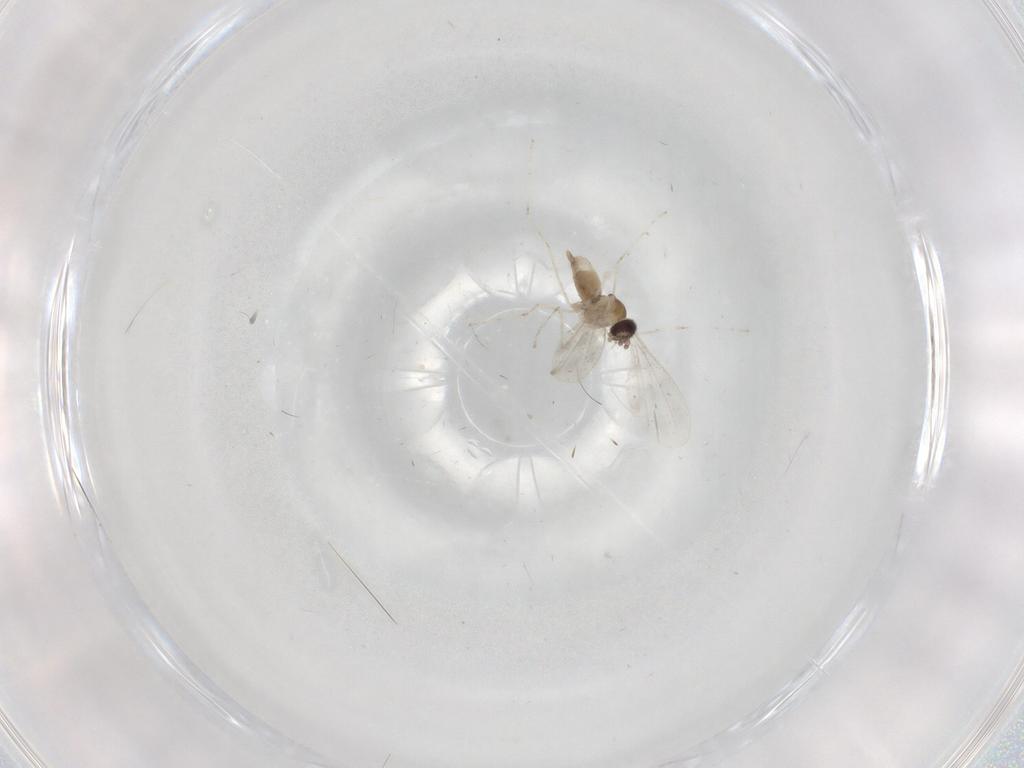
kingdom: Animalia
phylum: Arthropoda
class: Insecta
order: Diptera
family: Cecidomyiidae
